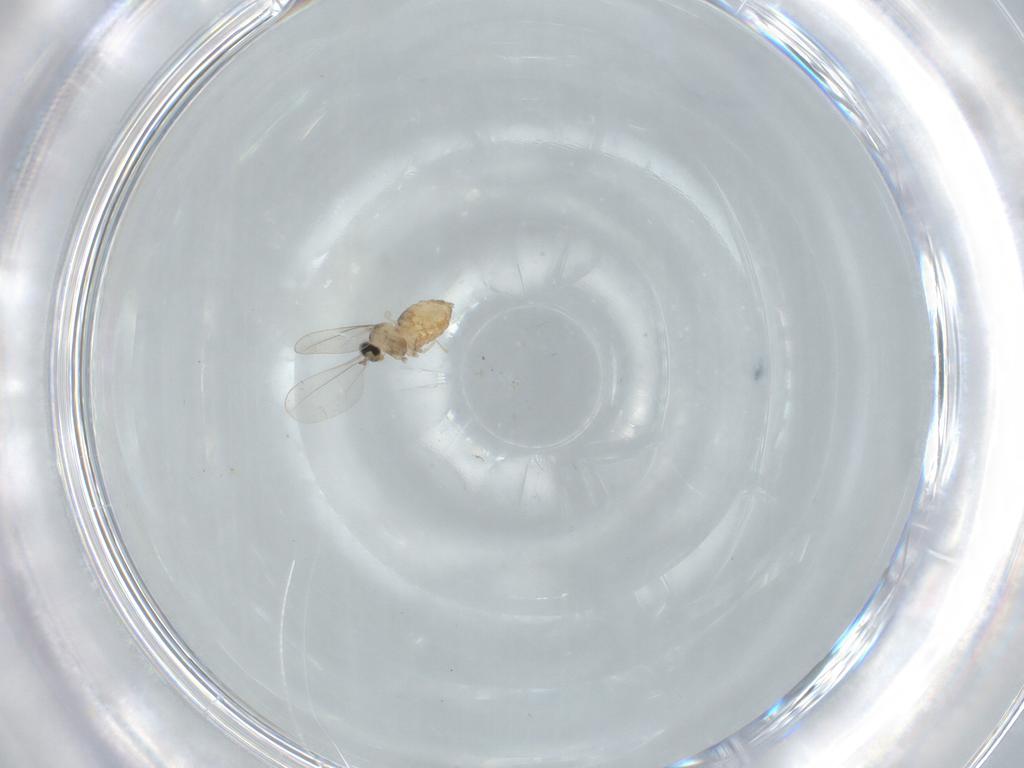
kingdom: Animalia
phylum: Arthropoda
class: Insecta
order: Diptera
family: Cecidomyiidae
